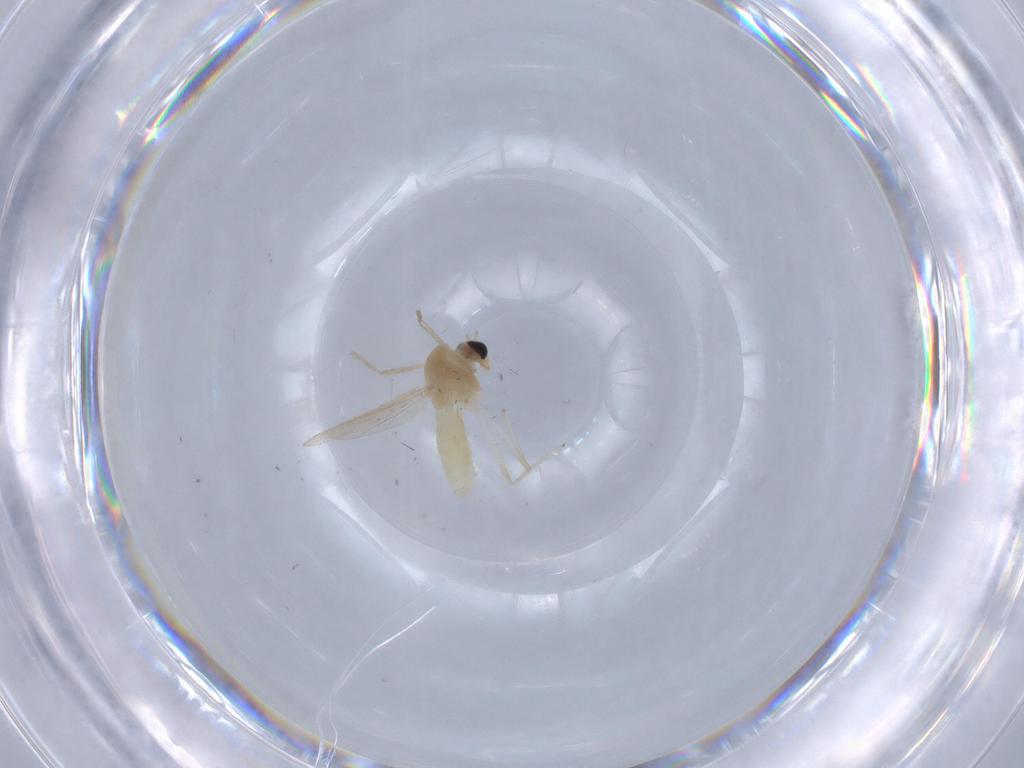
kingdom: Animalia
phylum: Arthropoda
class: Insecta
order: Diptera
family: Chironomidae
